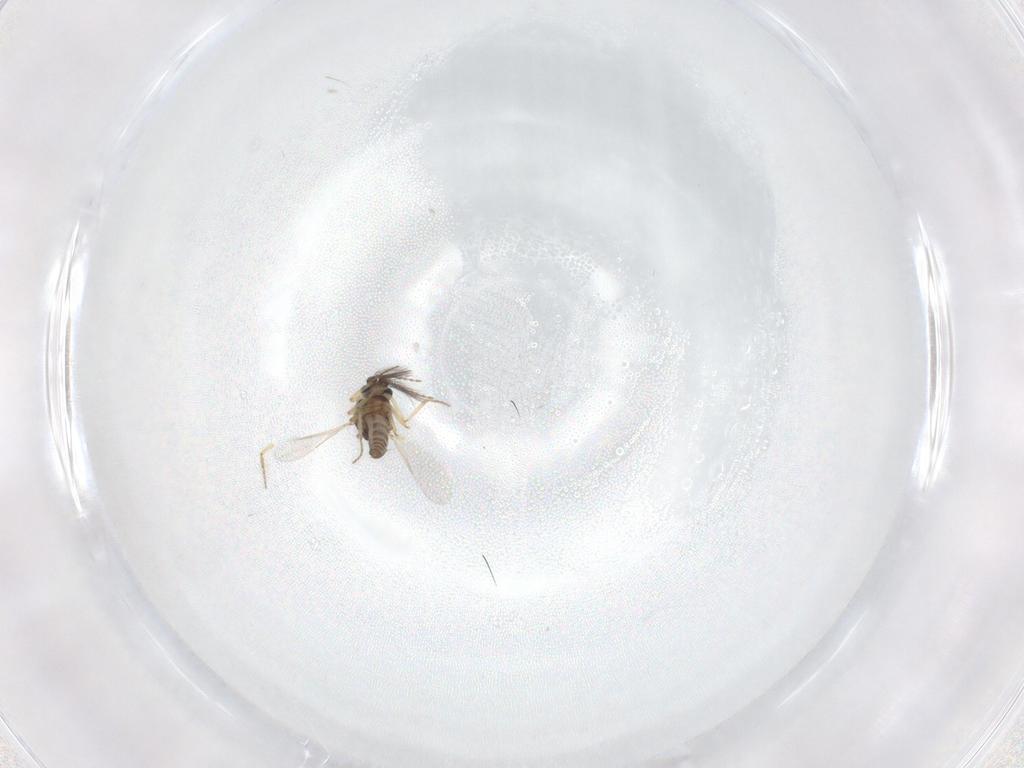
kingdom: Animalia
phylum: Arthropoda
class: Insecta
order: Diptera
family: Ceratopogonidae
